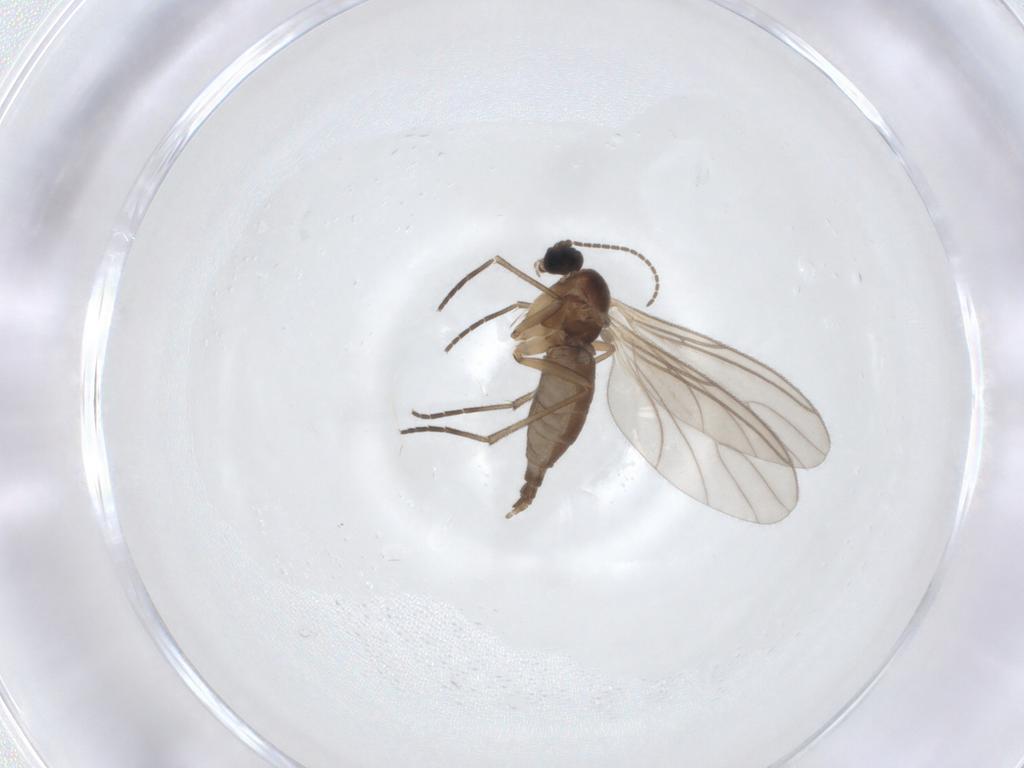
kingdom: Animalia
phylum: Arthropoda
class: Insecta
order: Diptera
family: Sciaridae
